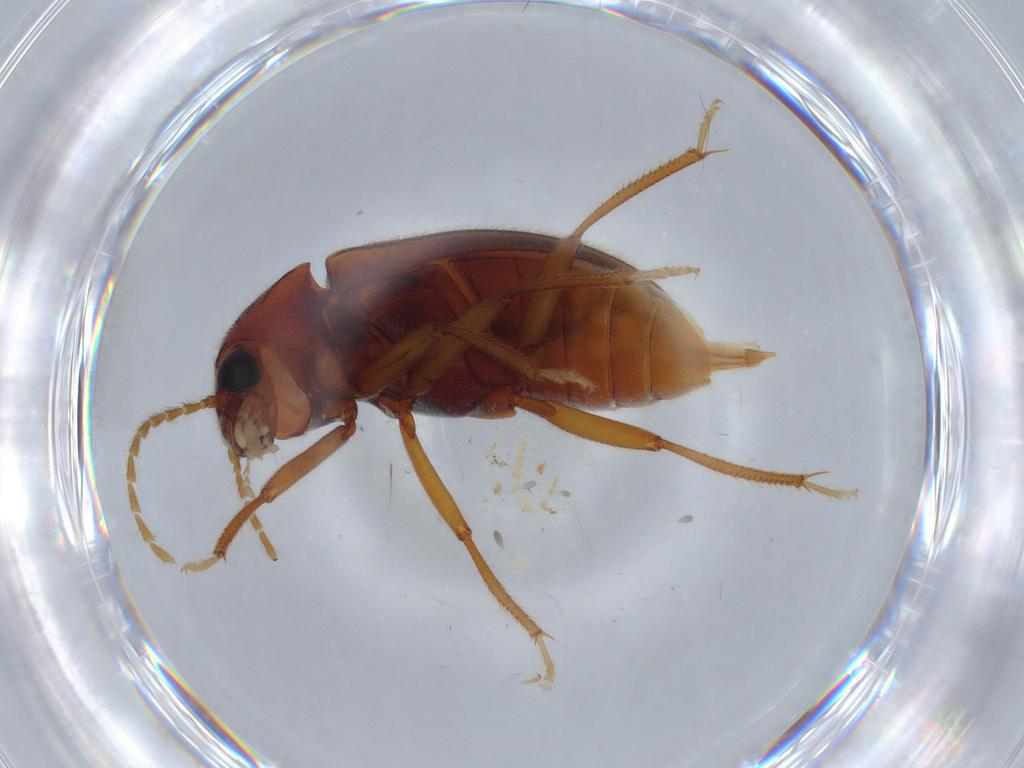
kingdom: Animalia
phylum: Arthropoda
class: Insecta
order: Coleoptera
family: Ptilodactylidae
